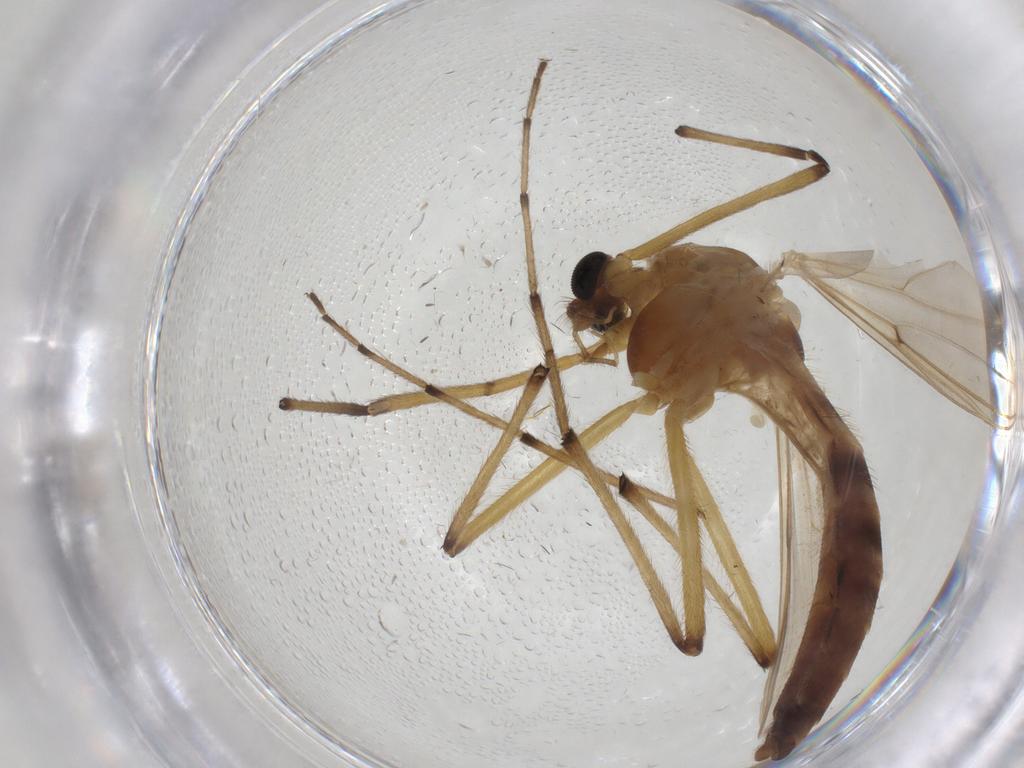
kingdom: Animalia
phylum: Arthropoda
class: Insecta
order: Diptera
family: Chironomidae
